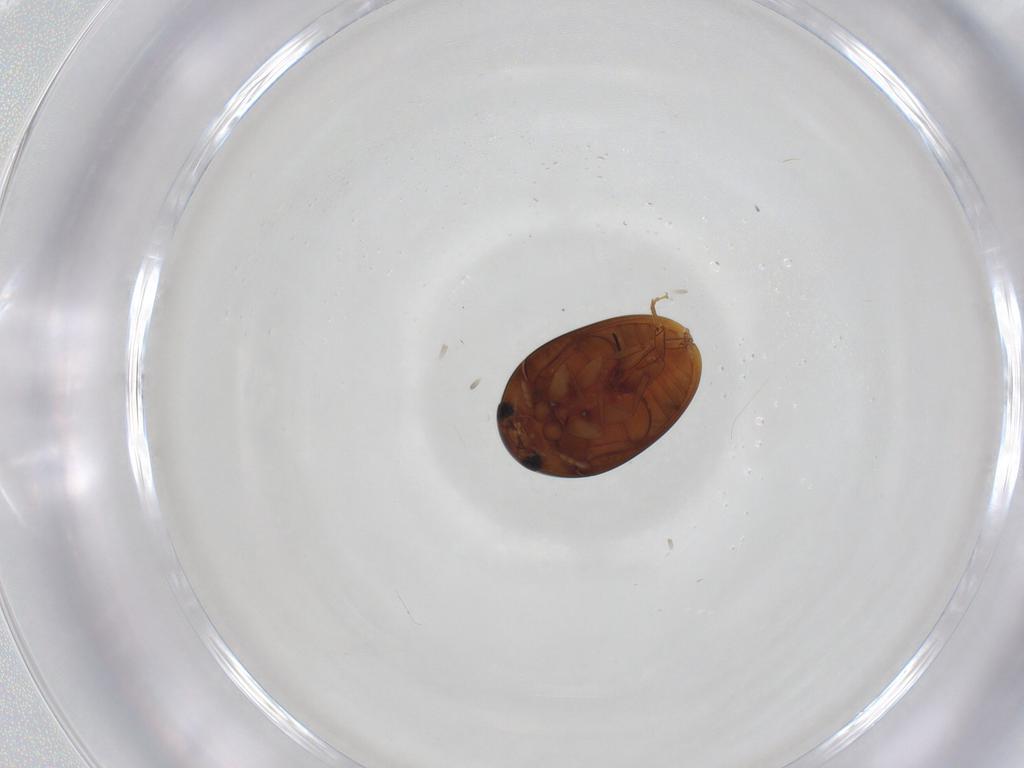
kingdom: Animalia
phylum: Arthropoda
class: Insecta
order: Coleoptera
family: Phalacridae
